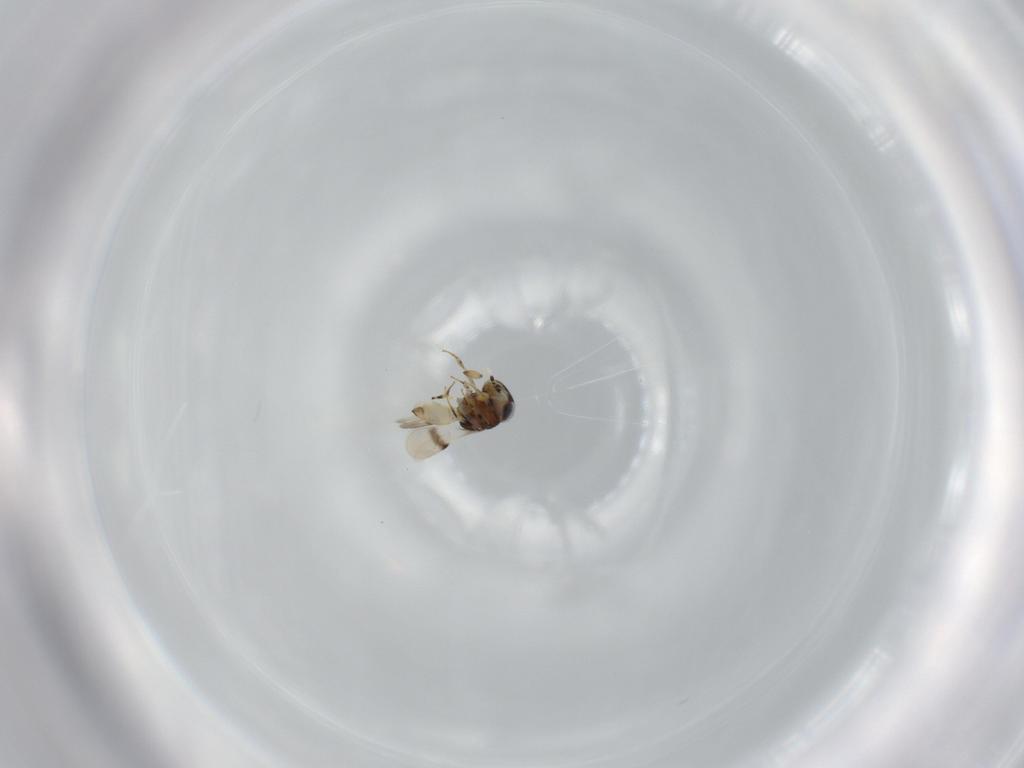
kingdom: Animalia
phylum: Arthropoda
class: Insecta
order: Hymenoptera
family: Scelionidae
